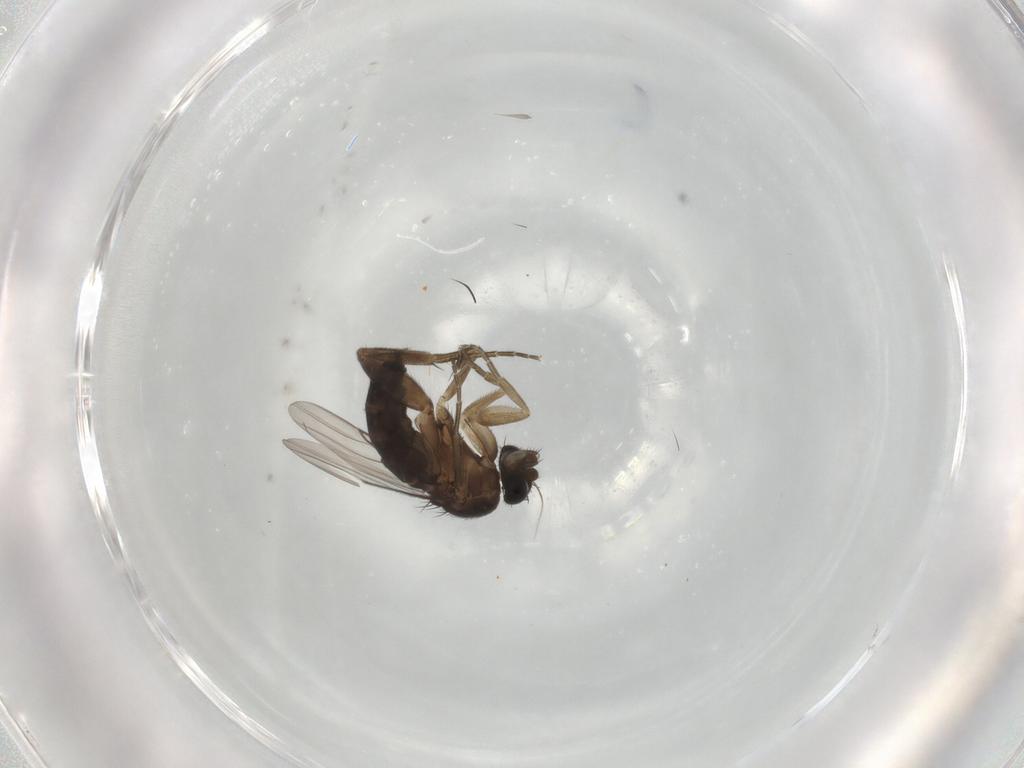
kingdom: Animalia
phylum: Arthropoda
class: Insecta
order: Diptera
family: Phoridae
